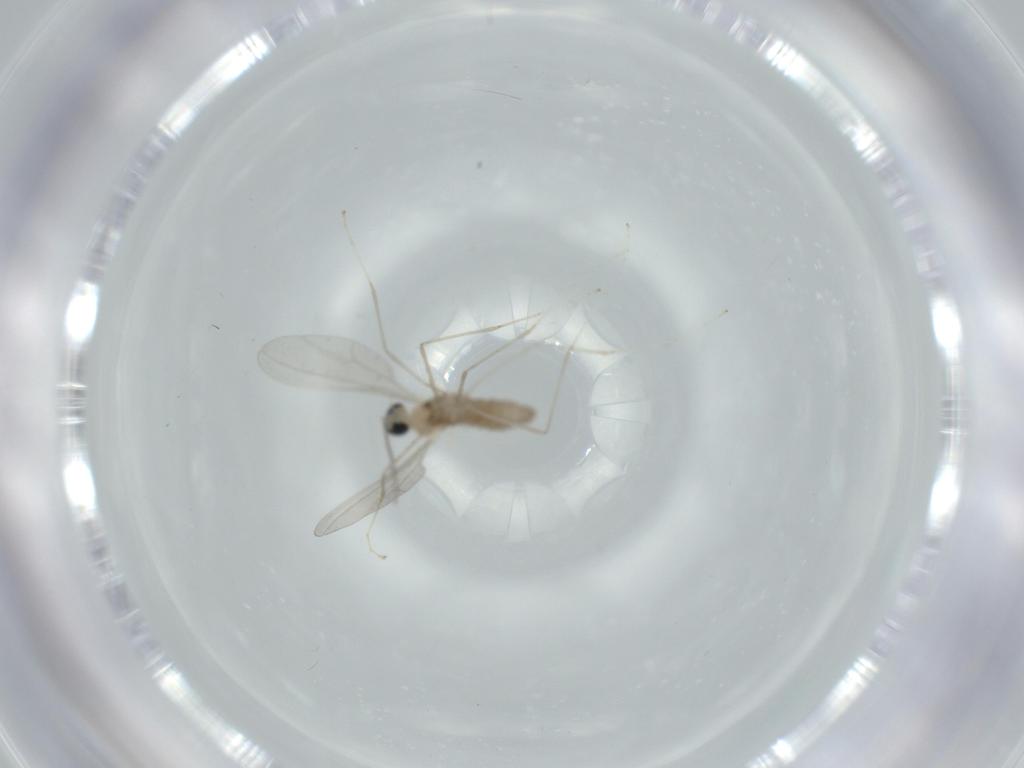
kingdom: Animalia
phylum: Arthropoda
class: Insecta
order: Diptera
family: Cecidomyiidae
